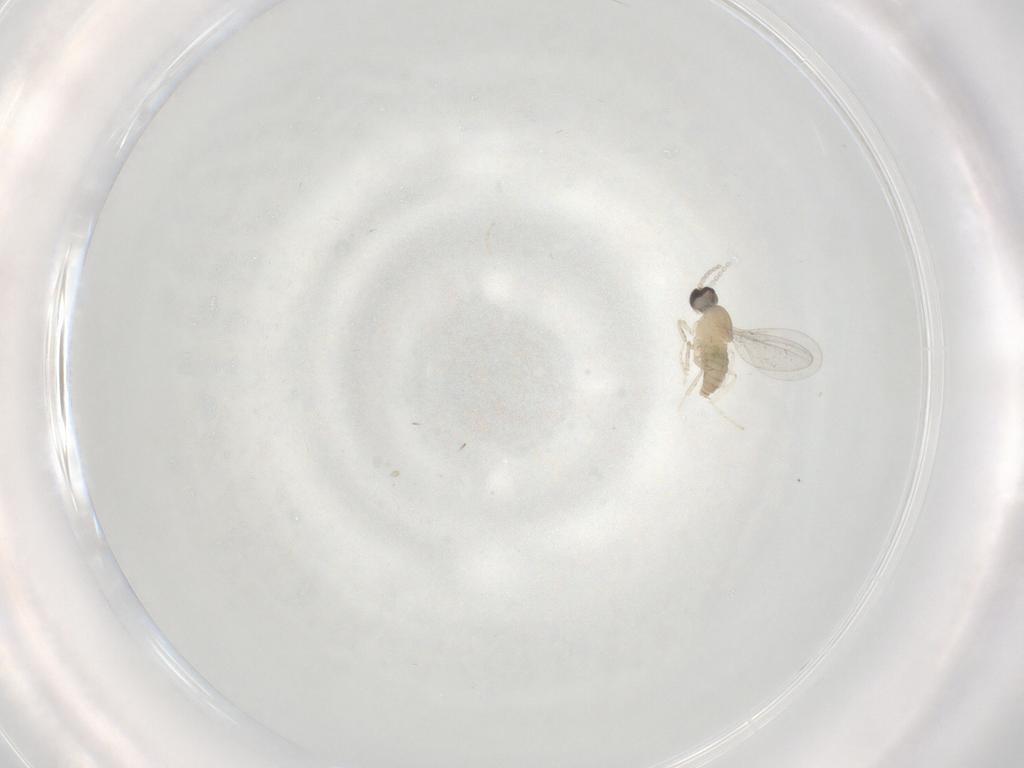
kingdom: Animalia
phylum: Arthropoda
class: Insecta
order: Diptera
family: Cecidomyiidae
